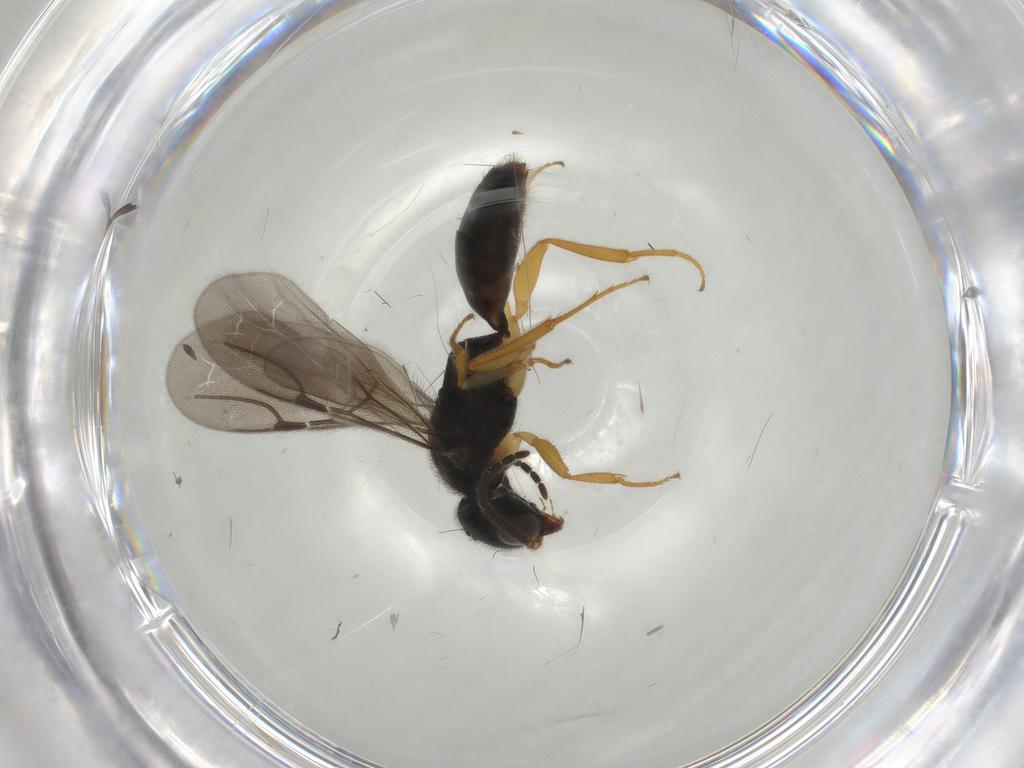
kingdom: Animalia
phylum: Arthropoda
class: Insecta
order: Hymenoptera
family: Bethylidae
